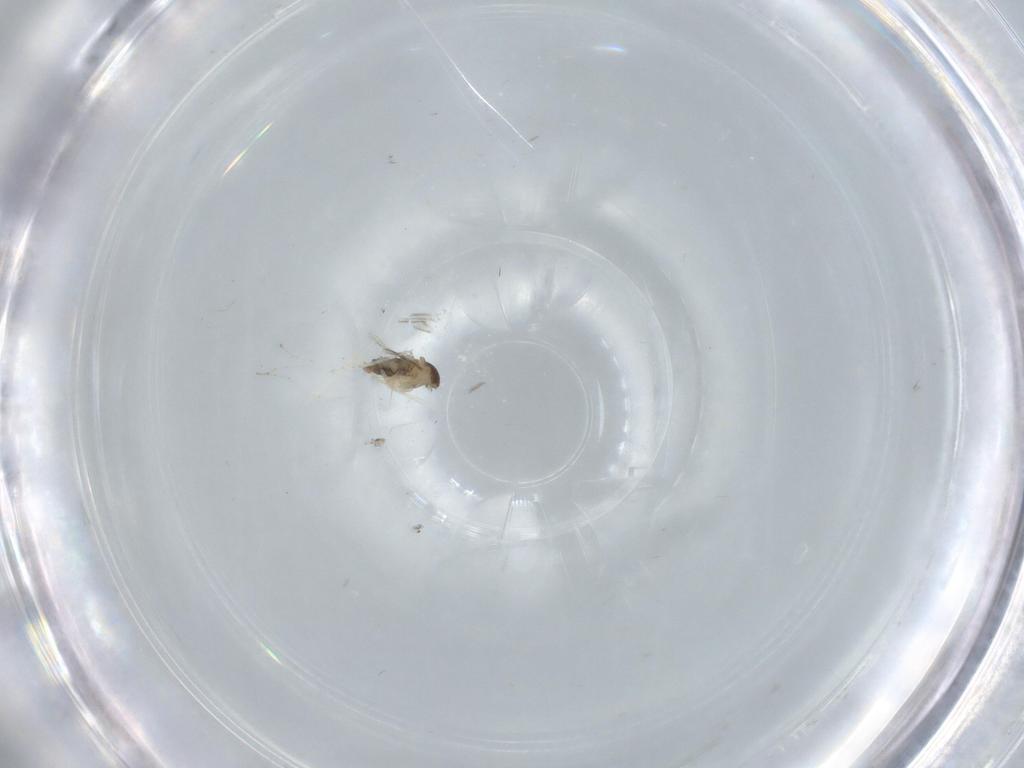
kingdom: Animalia
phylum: Arthropoda
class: Insecta
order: Diptera
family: Cecidomyiidae
